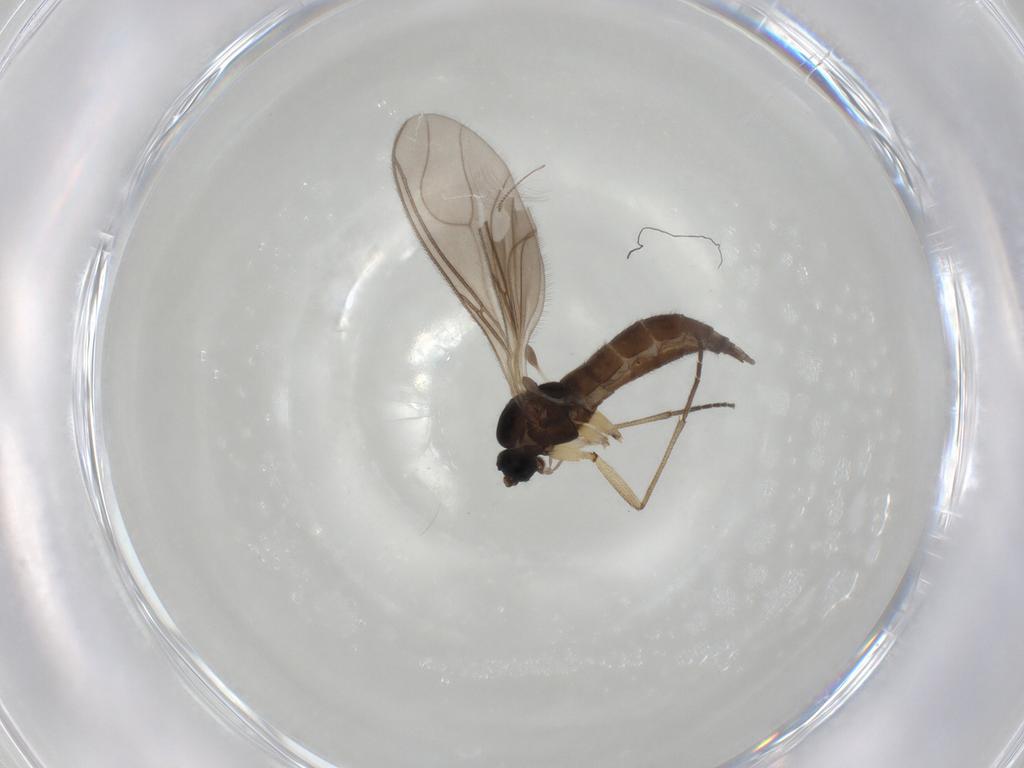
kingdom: Animalia
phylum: Arthropoda
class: Insecta
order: Diptera
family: Sciaridae
